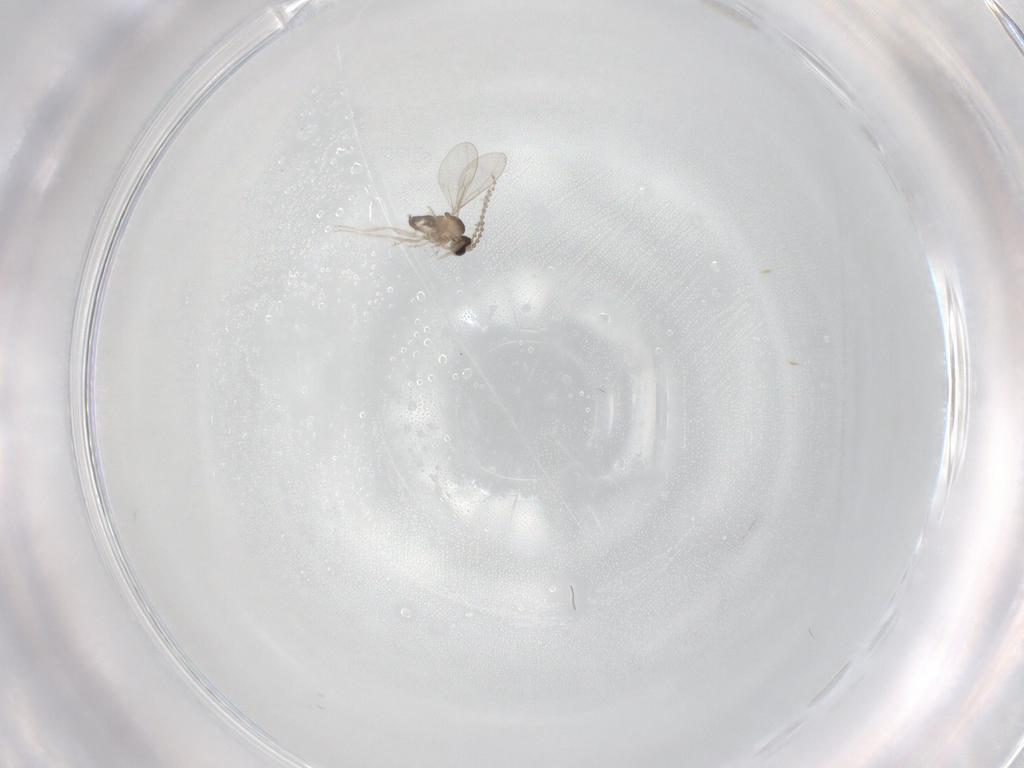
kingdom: Animalia
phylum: Arthropoda
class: Insecta
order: Diptera
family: Cecidomyiidae
